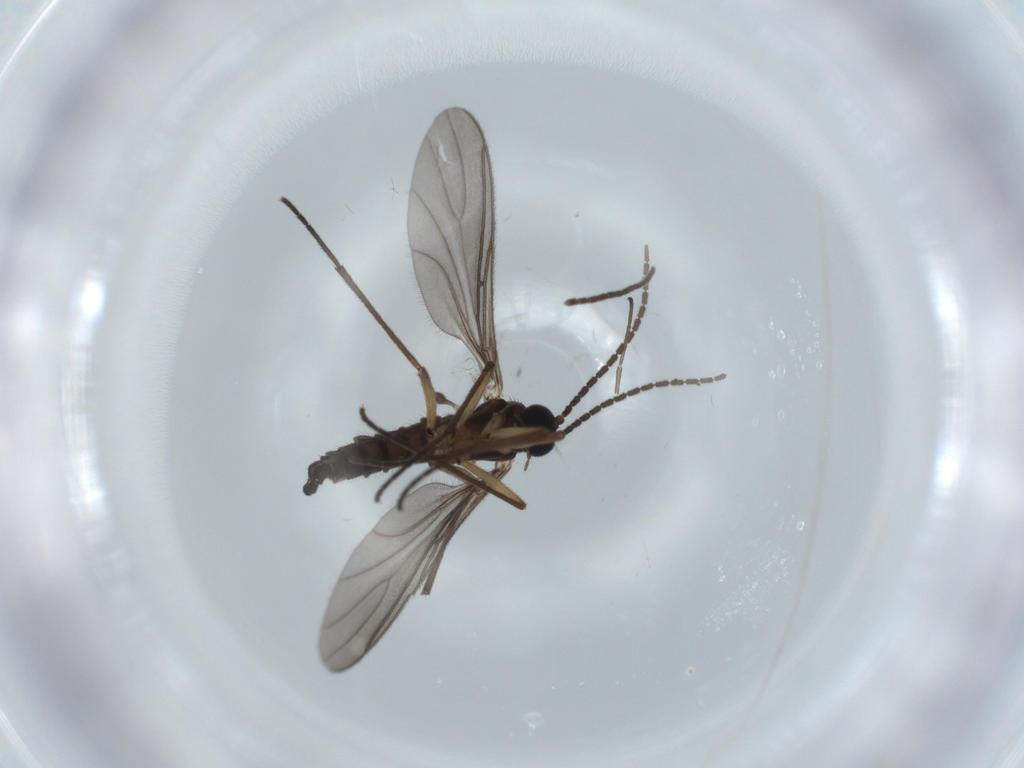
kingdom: Animalia
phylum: Arthropoda
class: Insecta
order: Diptera
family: Sciaridae
